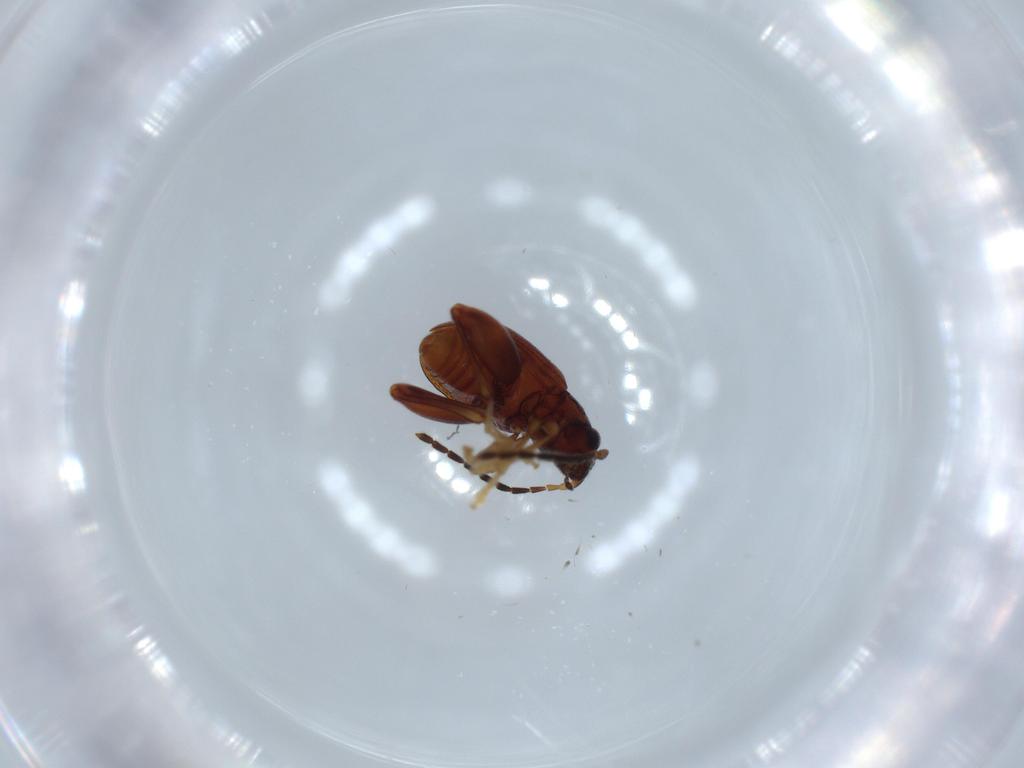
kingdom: Animalia
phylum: Arthropoda
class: Insecta
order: Coleoptera
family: Chrysomelidae
